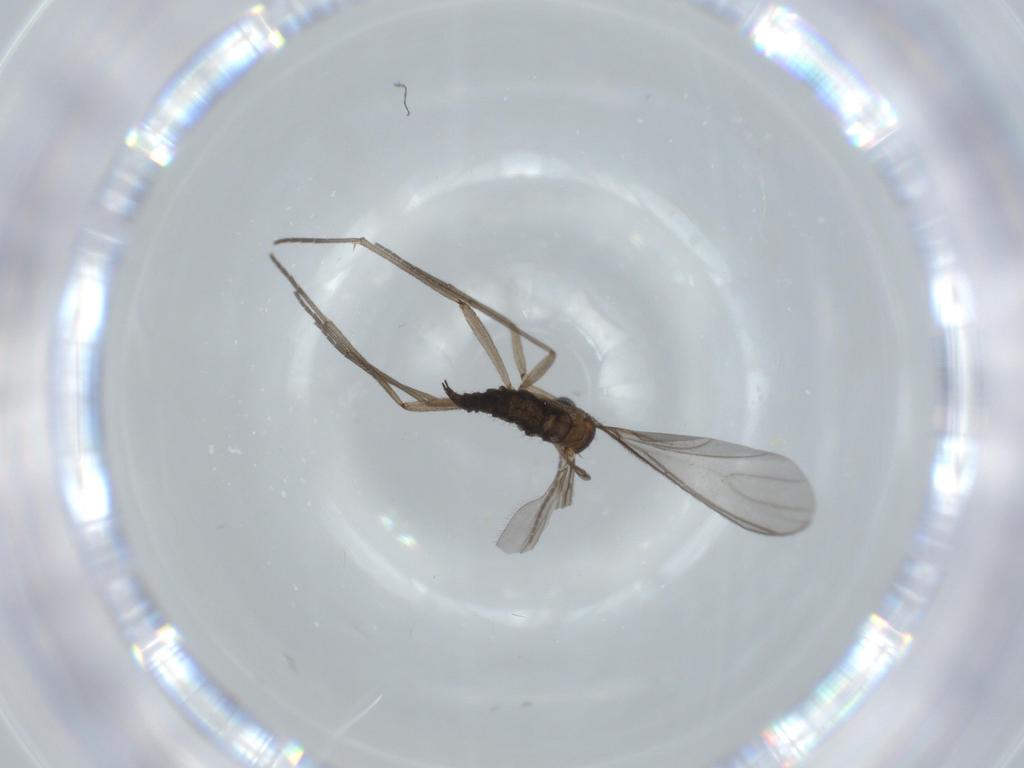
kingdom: Animalia
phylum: Arthropoda
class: Insecta
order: Diptera
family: Sciaridae
